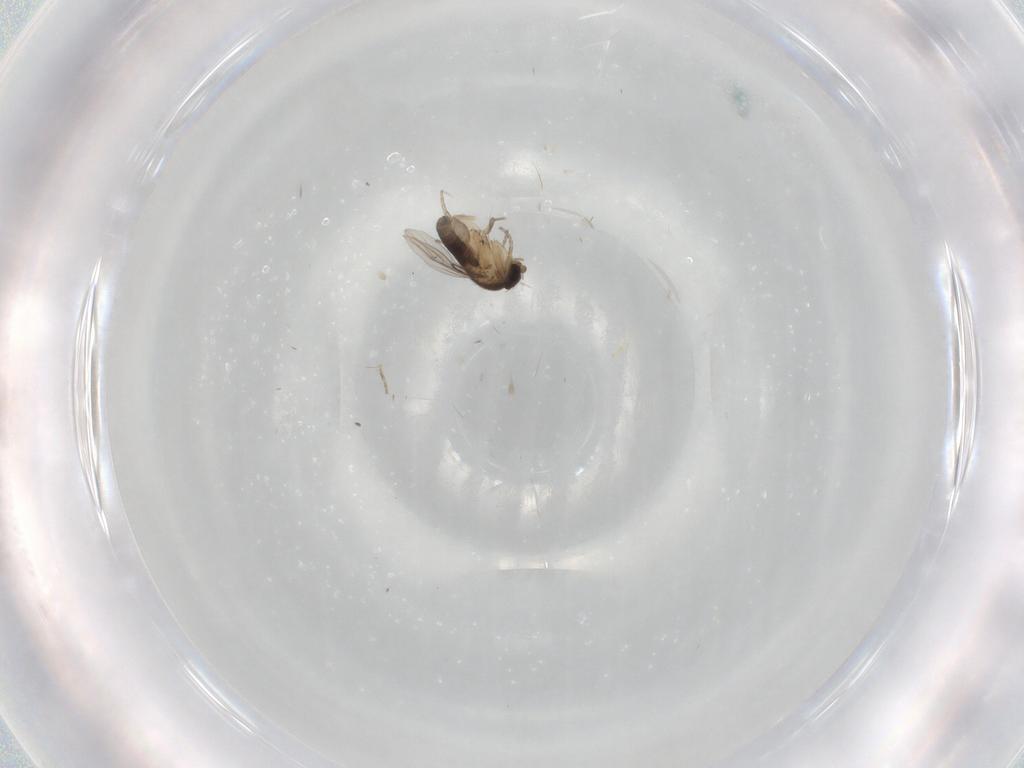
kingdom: Animalia
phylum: Arthropoda
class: Insecta
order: Diptera
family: Phoridae
